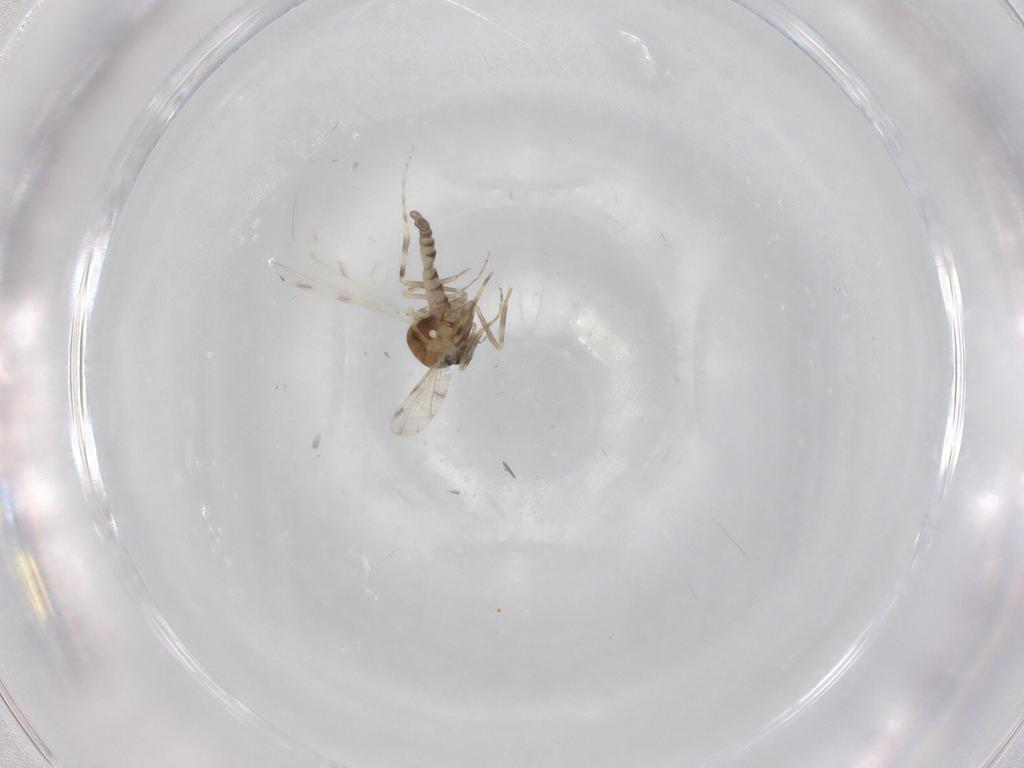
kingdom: Animalia
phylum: Arthropoda
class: Insecta
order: Diptera
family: Ceratopogonidae
